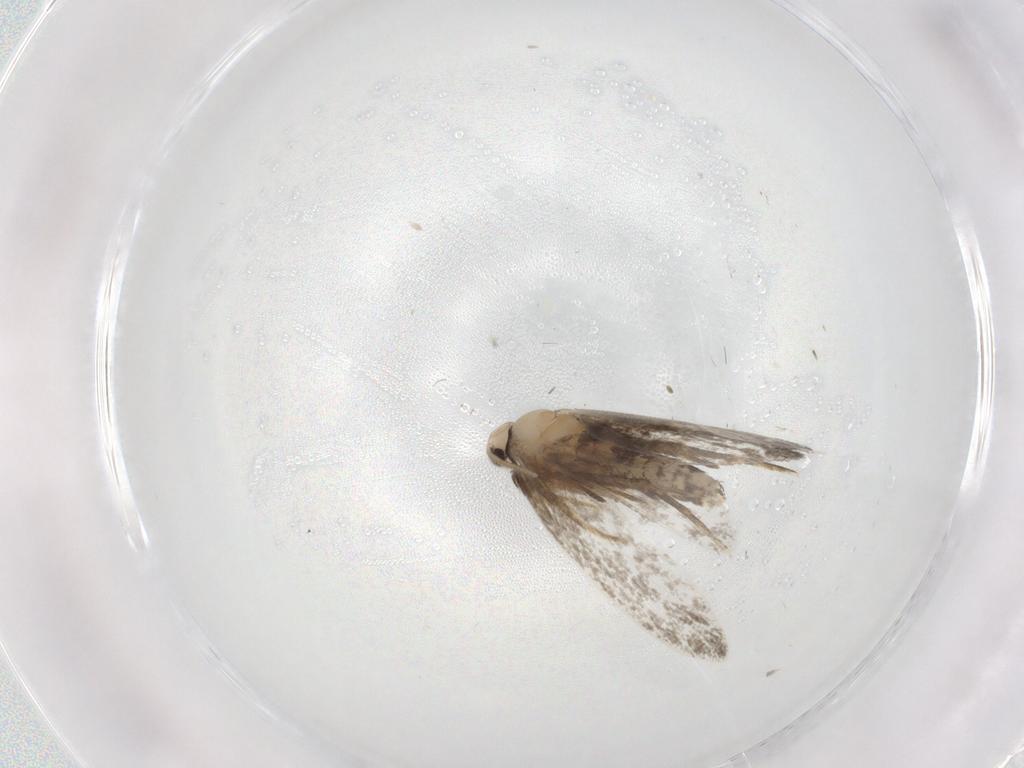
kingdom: Animalia
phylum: Arthropoda
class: Insecta
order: Lepidoptera
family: Psychidae
